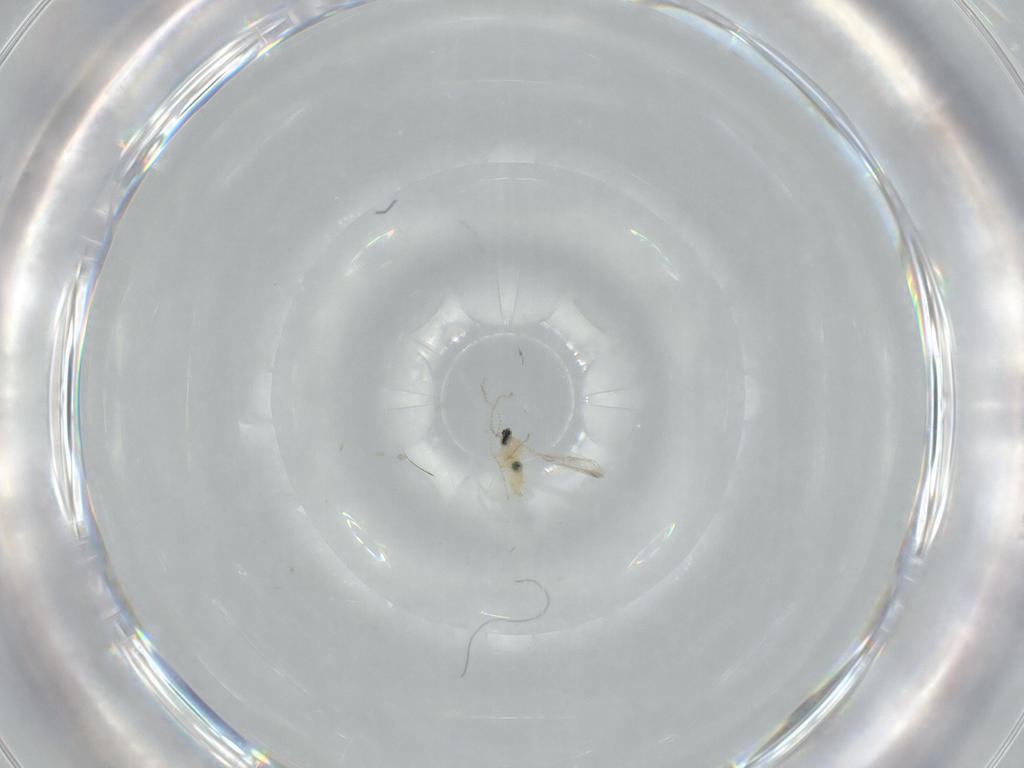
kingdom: Animalia
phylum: Arthropoda
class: Insecta
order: Diptera
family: Cecidomyiidae
